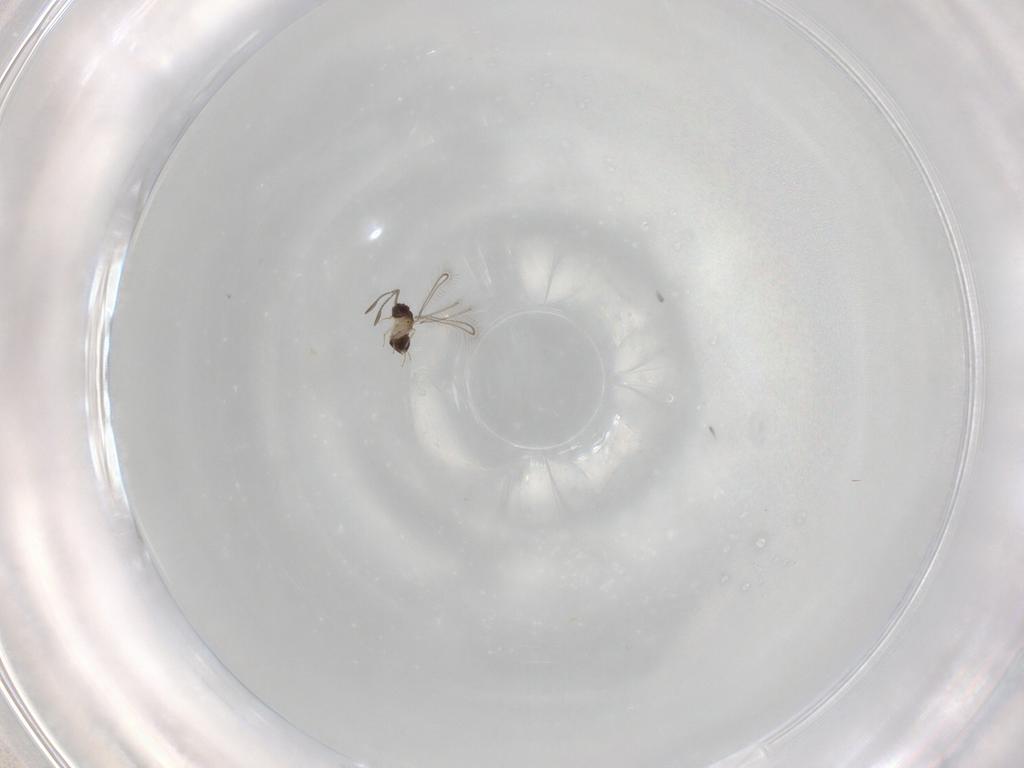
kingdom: Animalia
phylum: Arthropoda
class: Insecta
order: Hymenoptera
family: Mymaridae
